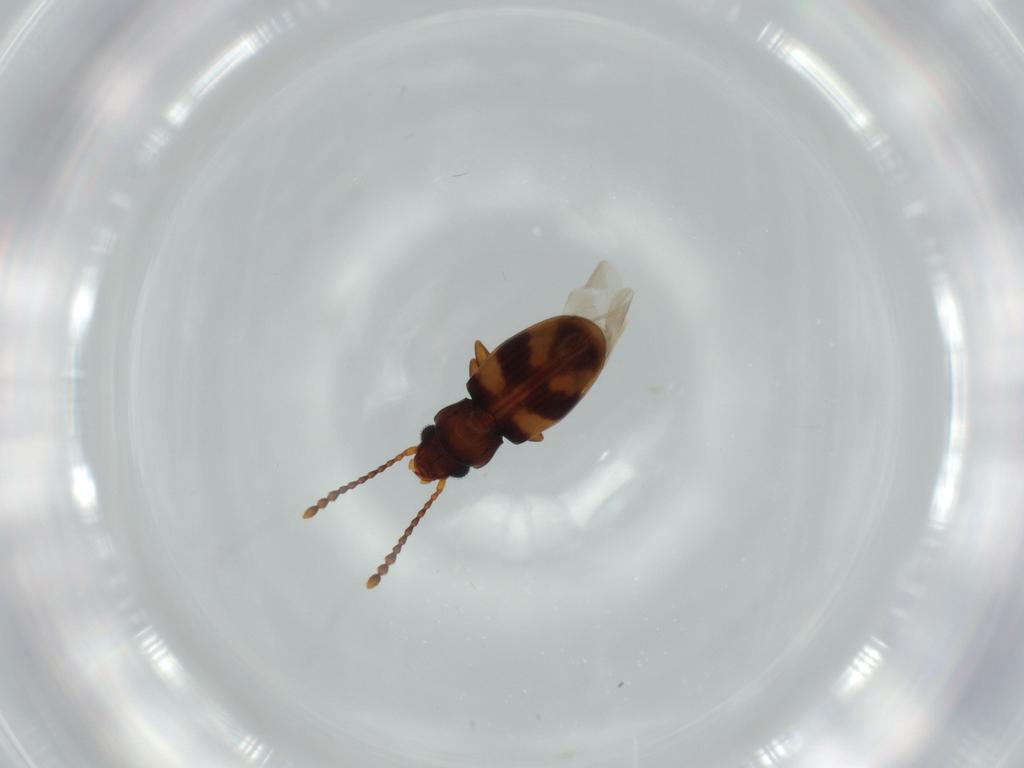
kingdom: Animalia
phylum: Arthropoda
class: Insecta
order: Coleoptera
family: Laemophloeidae
